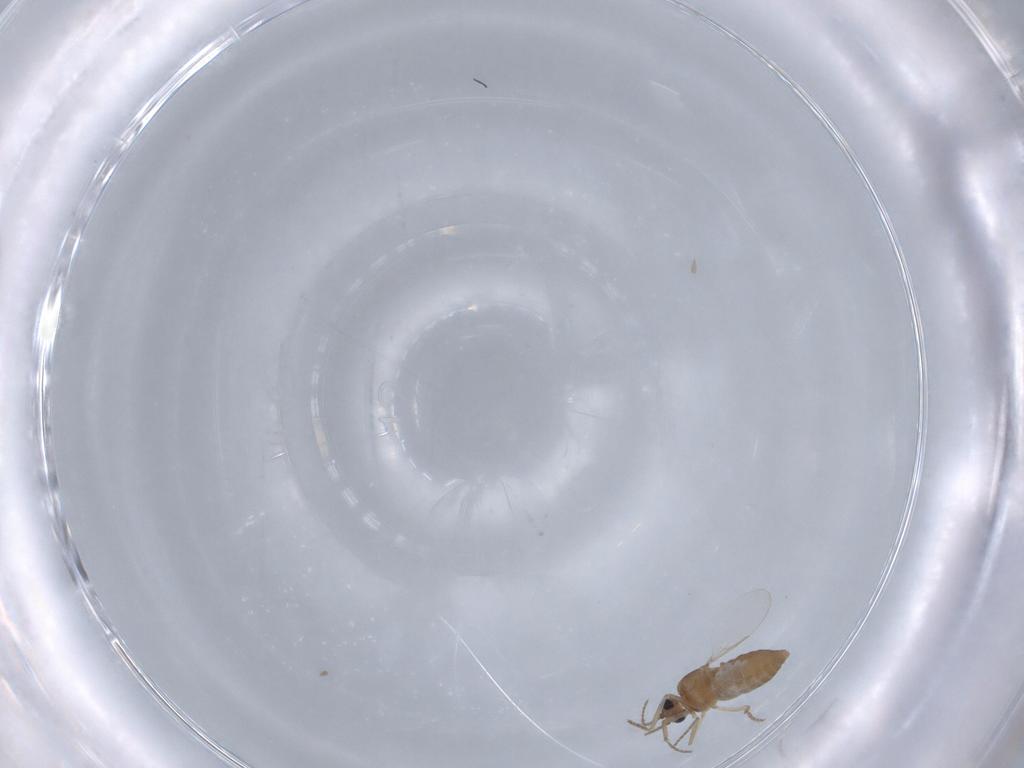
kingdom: Animalia
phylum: Arthropoda
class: Insecta
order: Diptera
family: Ceratopogonidae
